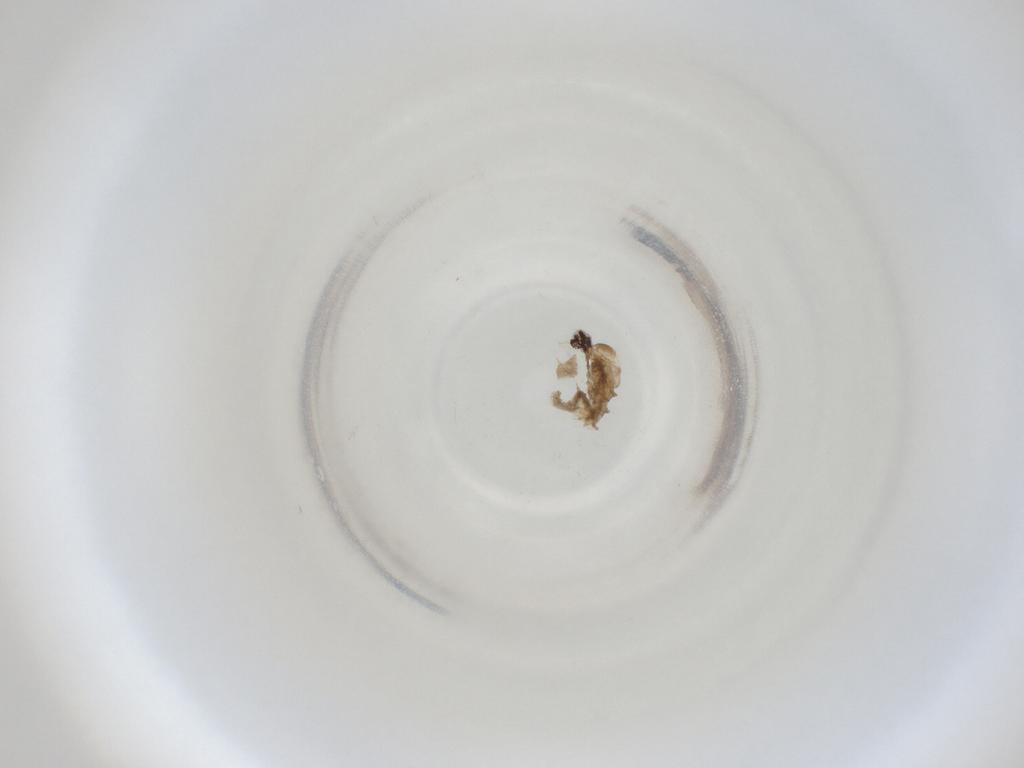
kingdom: Animalia
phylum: Arthropoda
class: Insecta
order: Diptera
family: Cecidomyiidae
